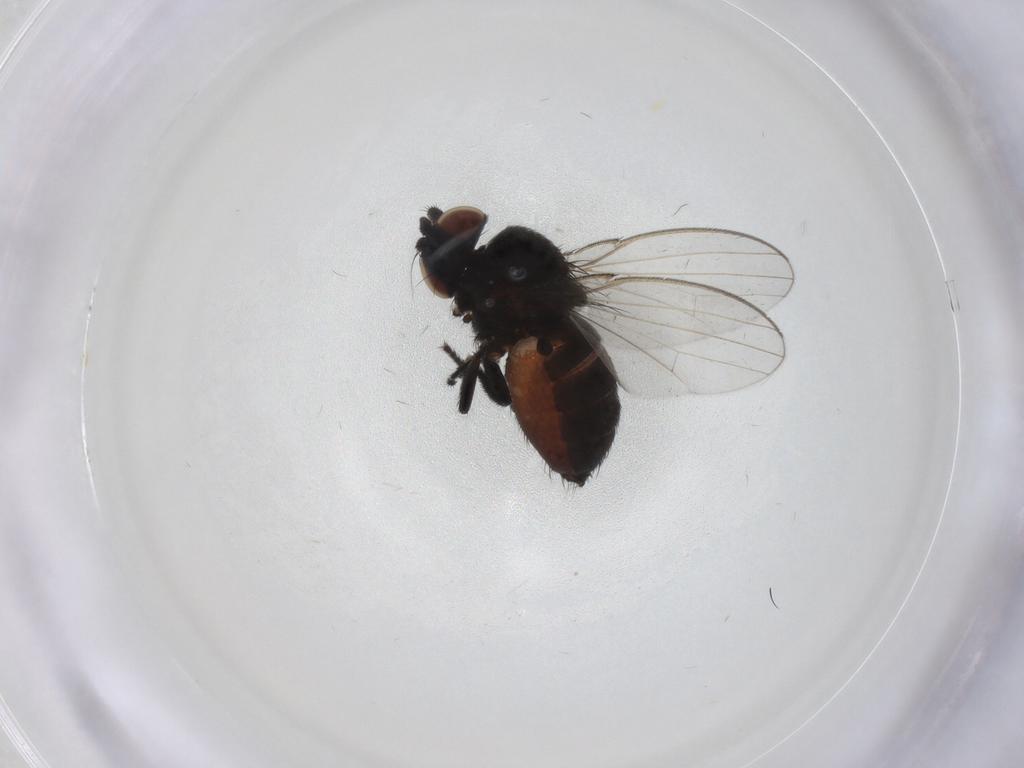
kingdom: Animalia
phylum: Arthropoda
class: Insecta
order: Diptera
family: Milichiidae
